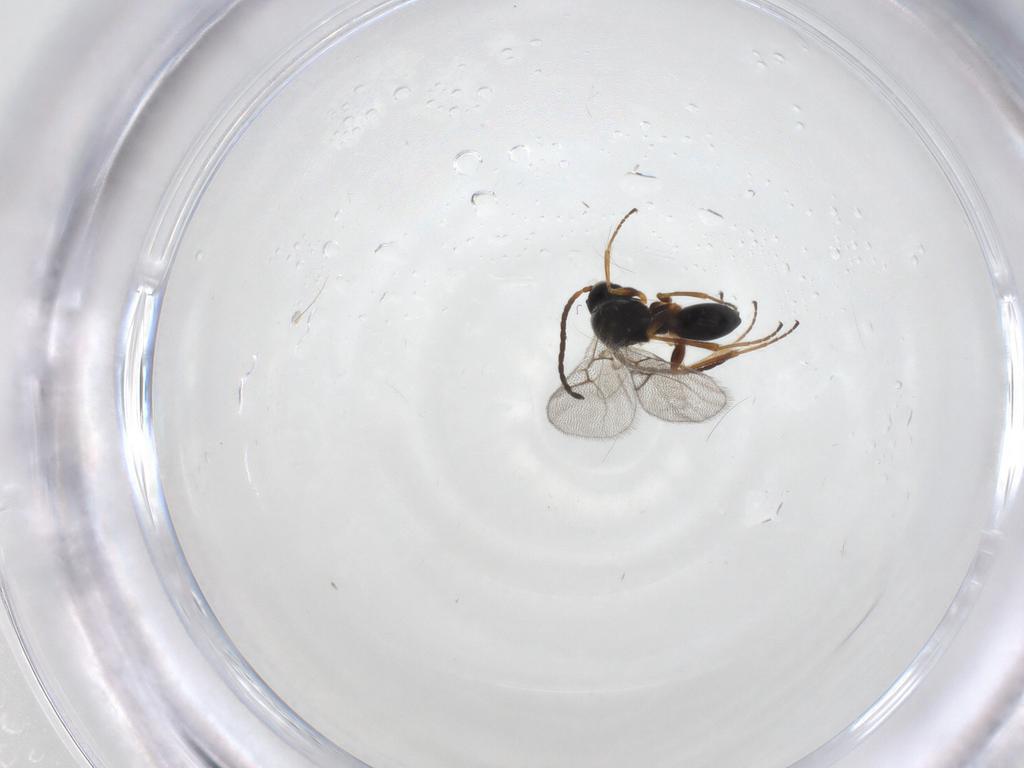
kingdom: Animalia
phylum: Arthropoda
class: Insecta
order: Hymenoptera
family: Figitidae
